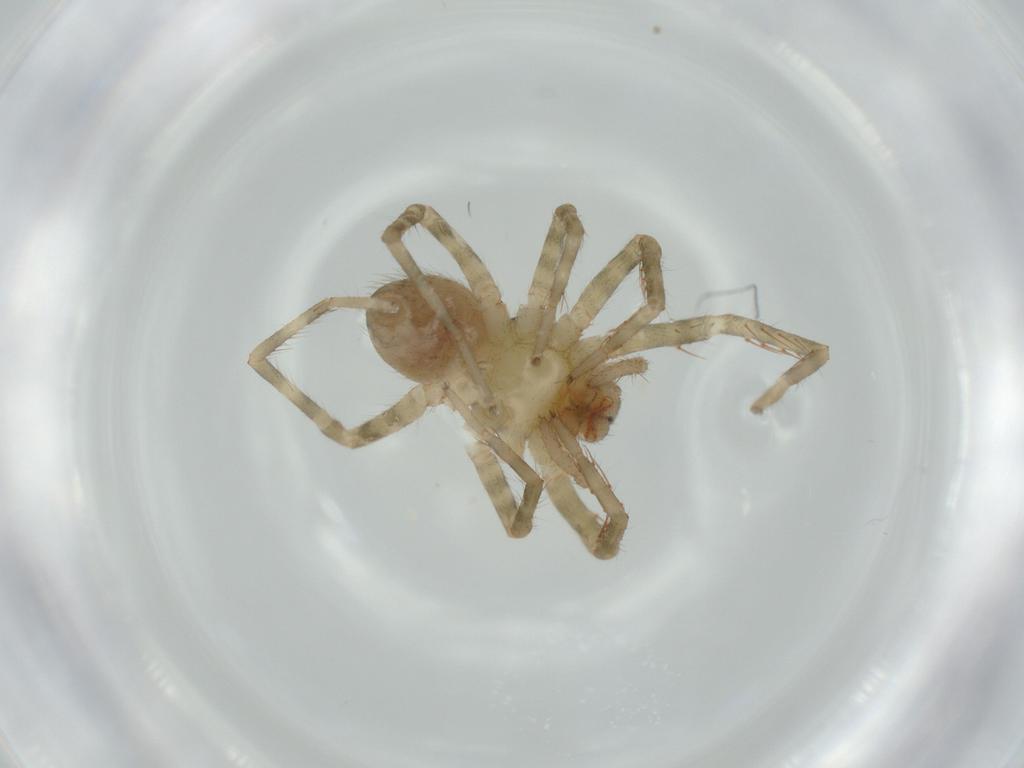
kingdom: Animalia
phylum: Arthropoda
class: Arachnida
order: Araneae
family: Ctenidae
